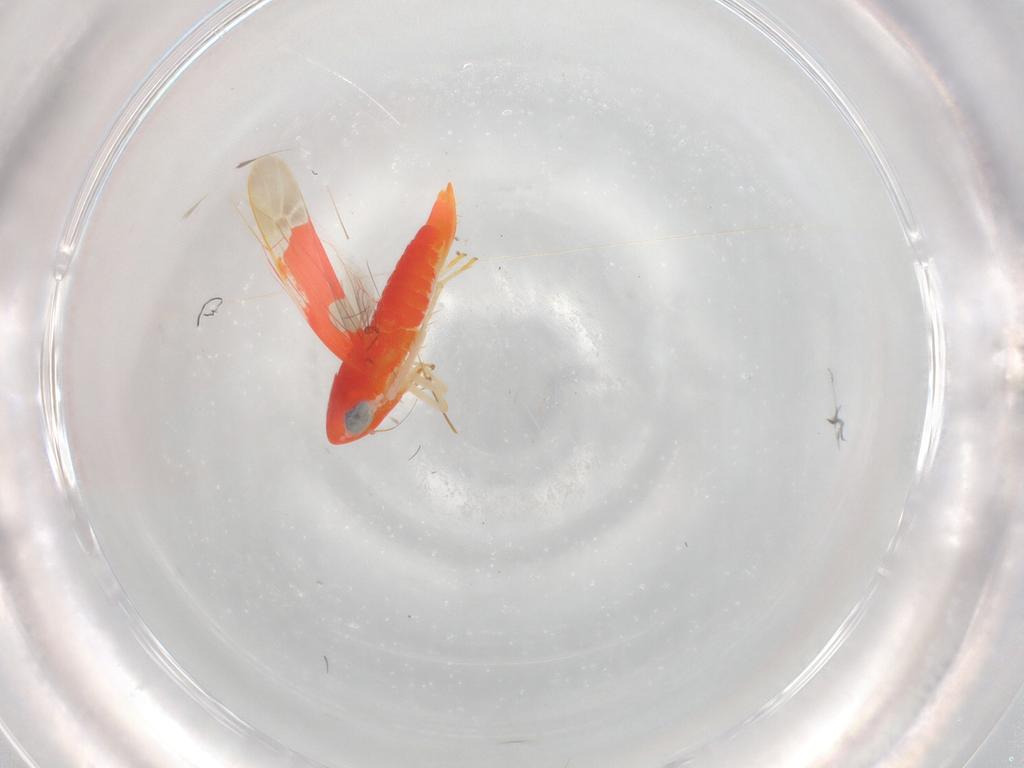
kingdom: Animalia
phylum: Arthropoda
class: Insecta
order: Hemiptera
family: Cicadellidae
